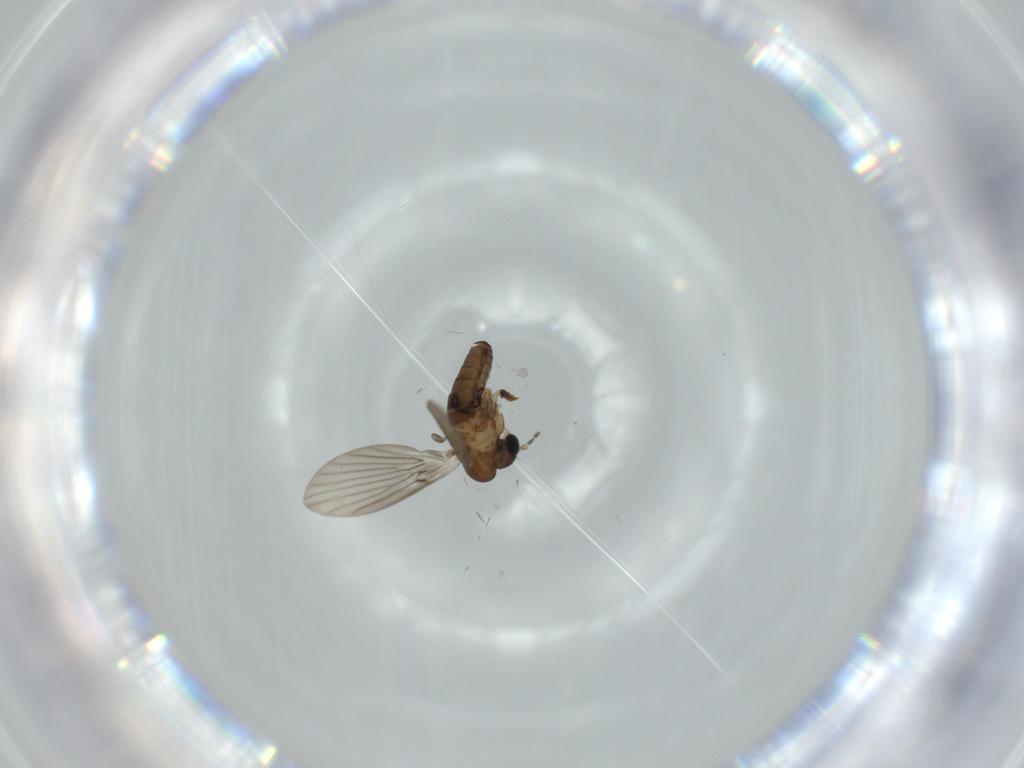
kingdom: Animalia
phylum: Arthropoda
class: Insecta
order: Diptera
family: Psychodidae
